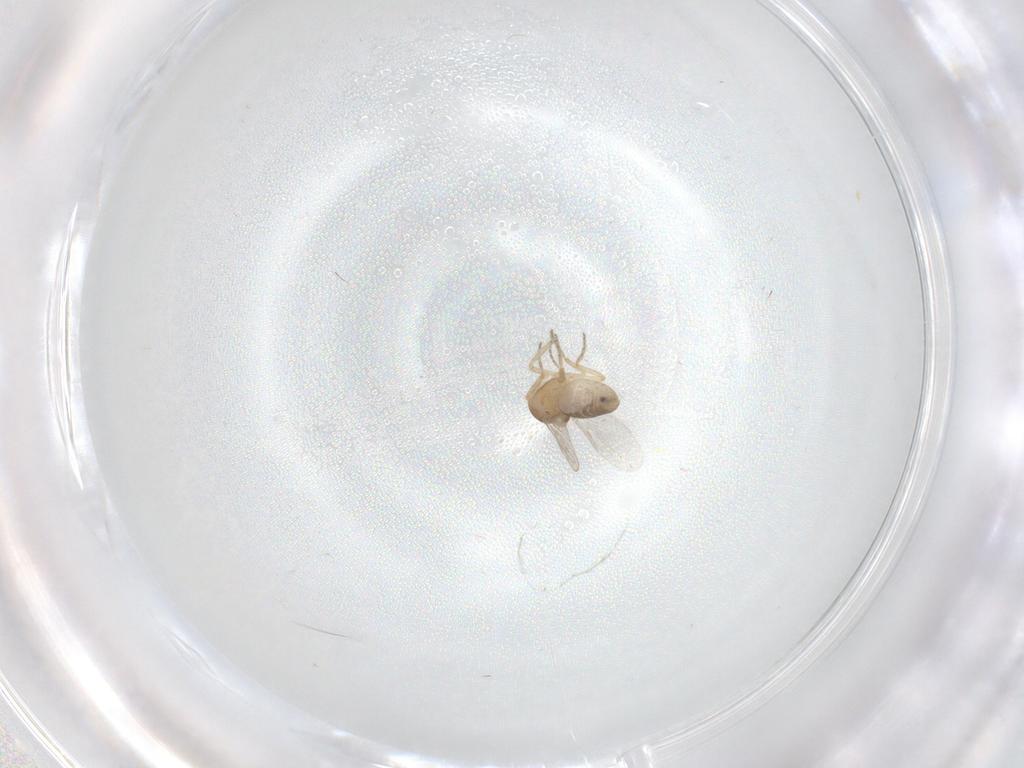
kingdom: Animalia
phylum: Arthropoda
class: Insecta
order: Diptera
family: Ceratopogonidae
